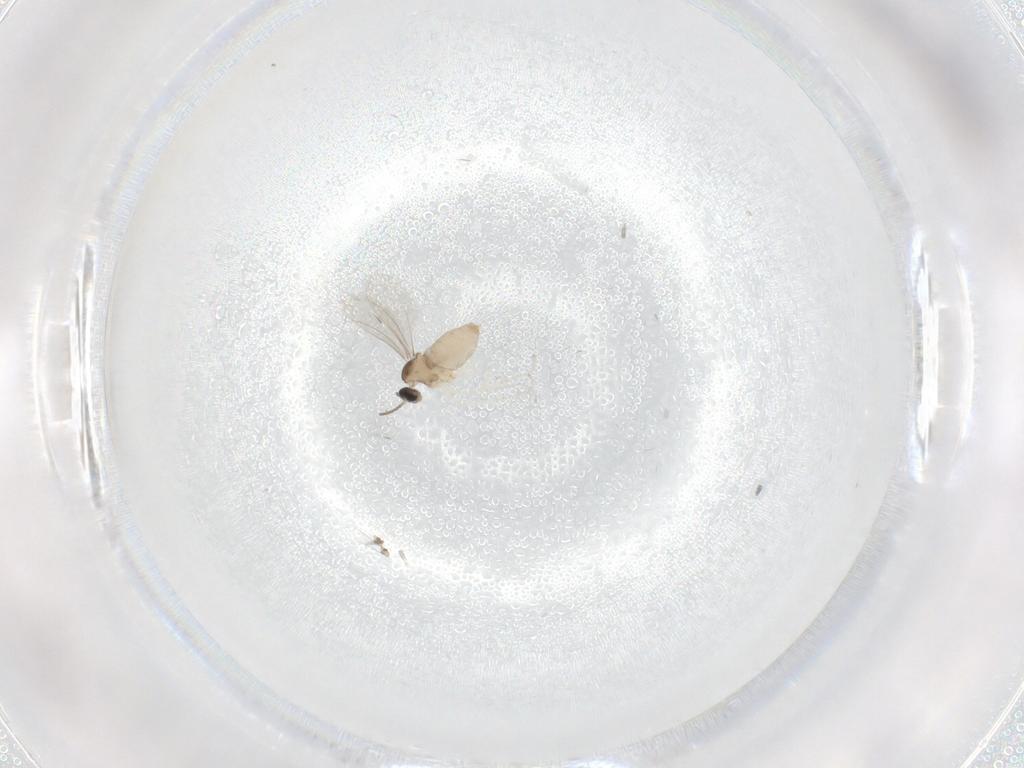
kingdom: Animalia
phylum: Arthropoda
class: Insecta
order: Diptera
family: Cecidomyiidae
